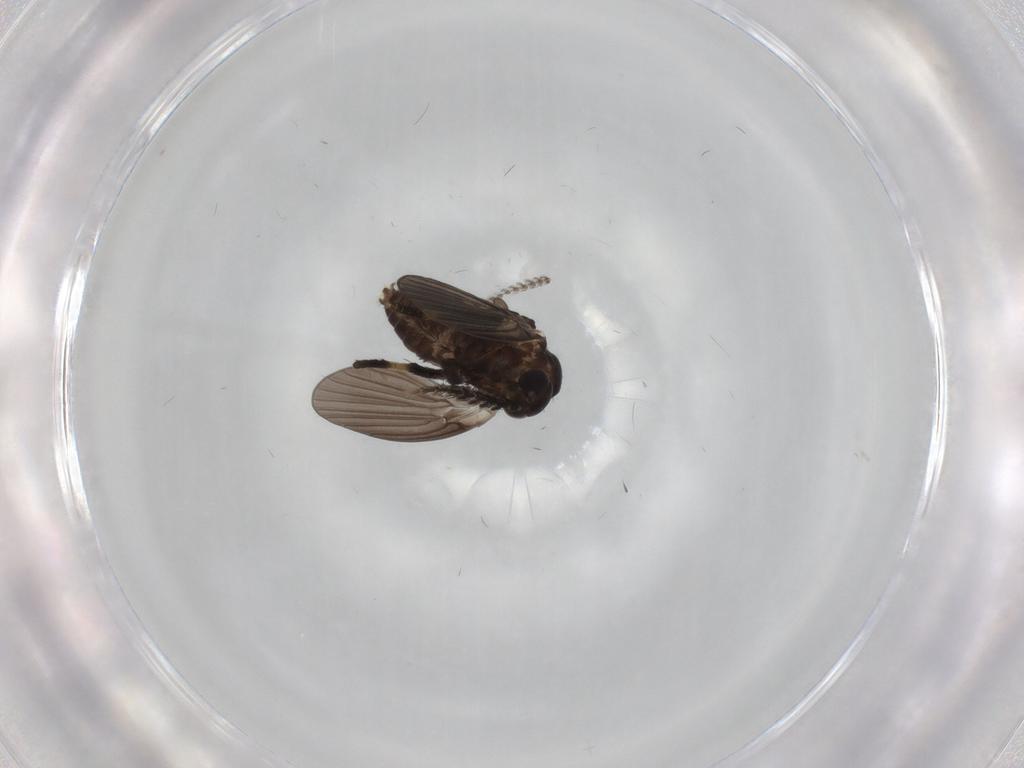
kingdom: Animalia
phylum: Arthropoda
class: Insecta
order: Diptera
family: Psychodidae
